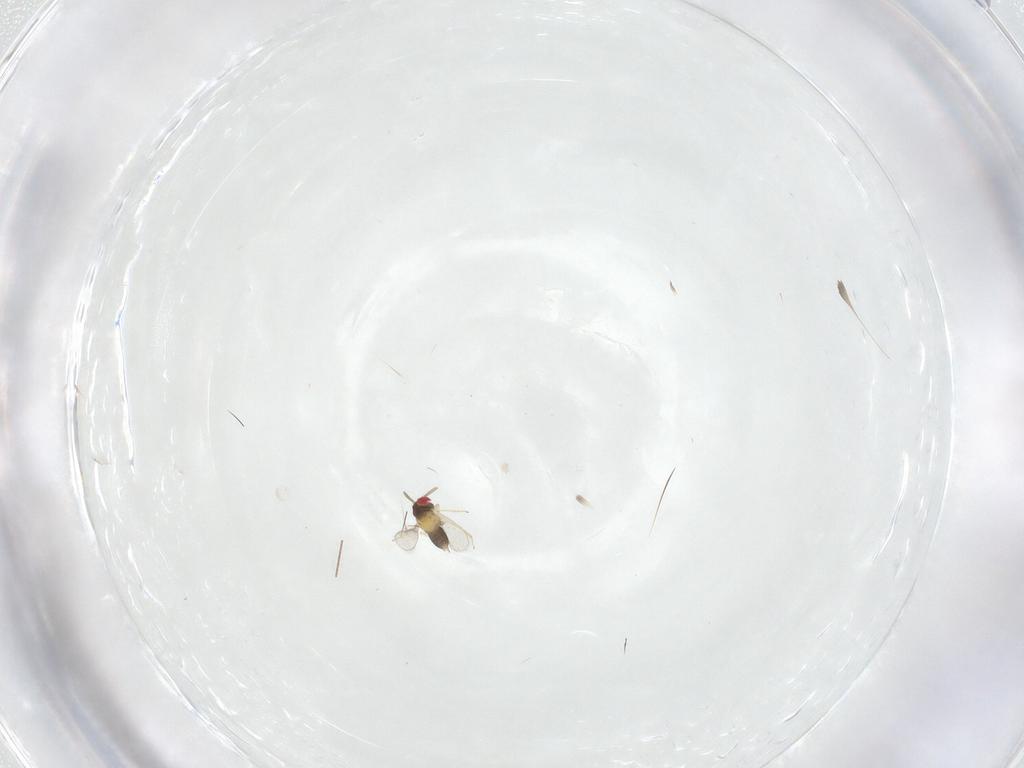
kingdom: Animalia
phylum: Arthropoda
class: Insecta
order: Hymenoptera
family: Aphelinidae
